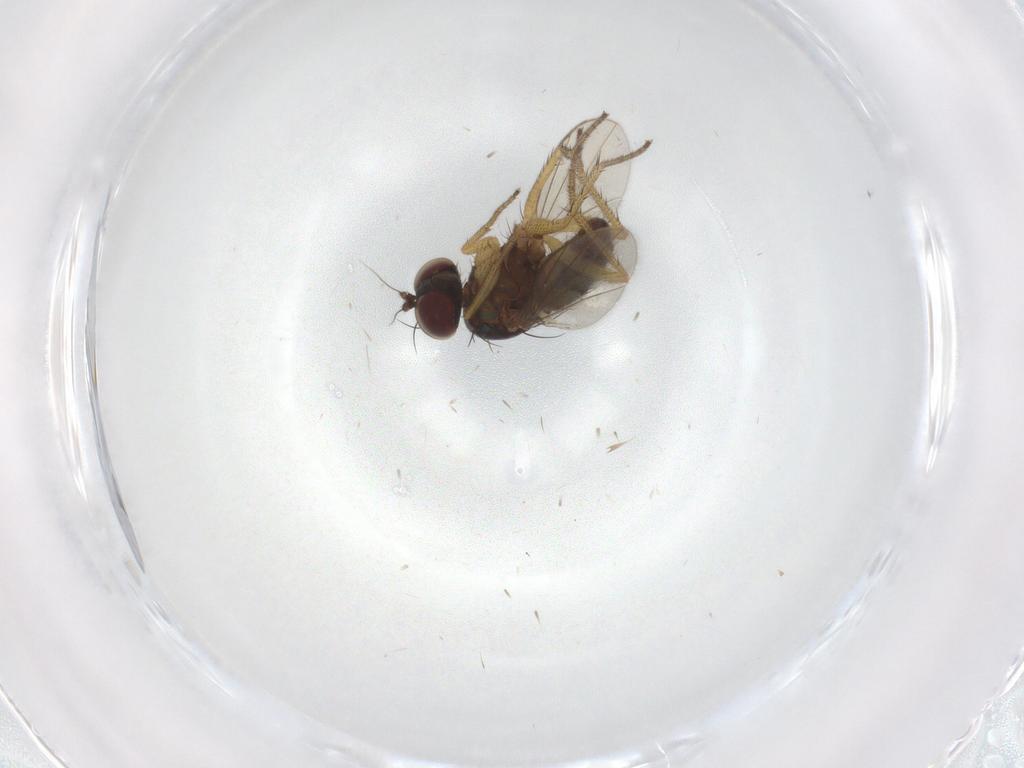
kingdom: Animalia
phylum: Arthropoda
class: Insecta
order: Diptera
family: Dolichopodidae
